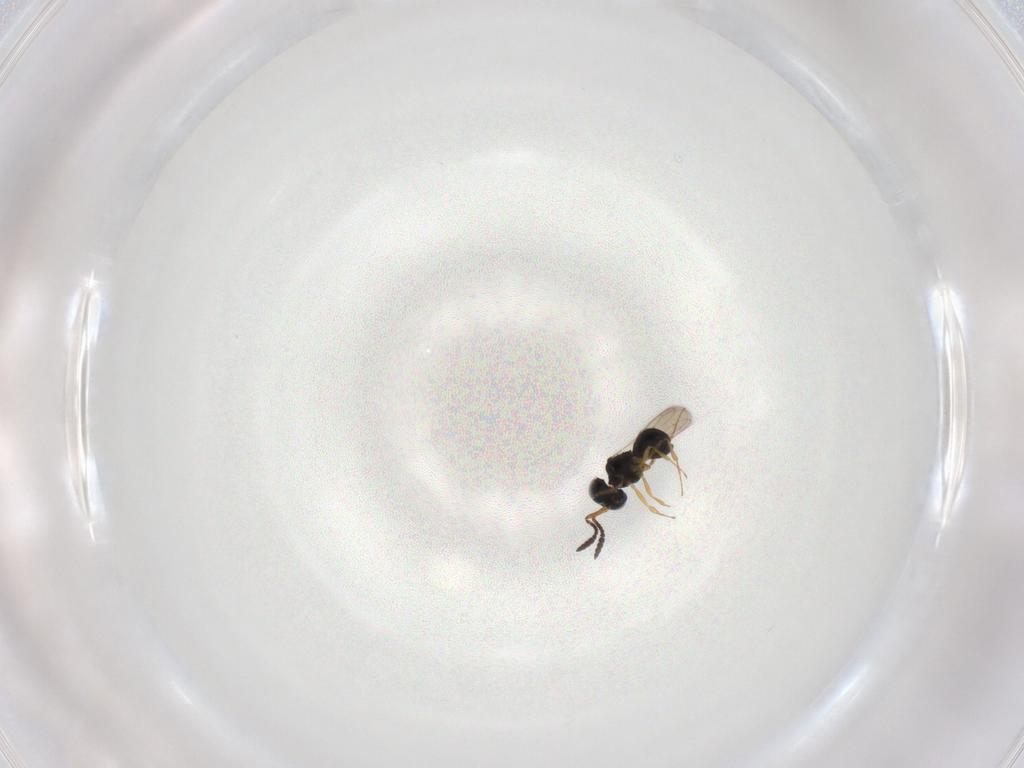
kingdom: Animalia
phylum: Arthropoda
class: Insecta
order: Hymenoptera
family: Scelionidae
